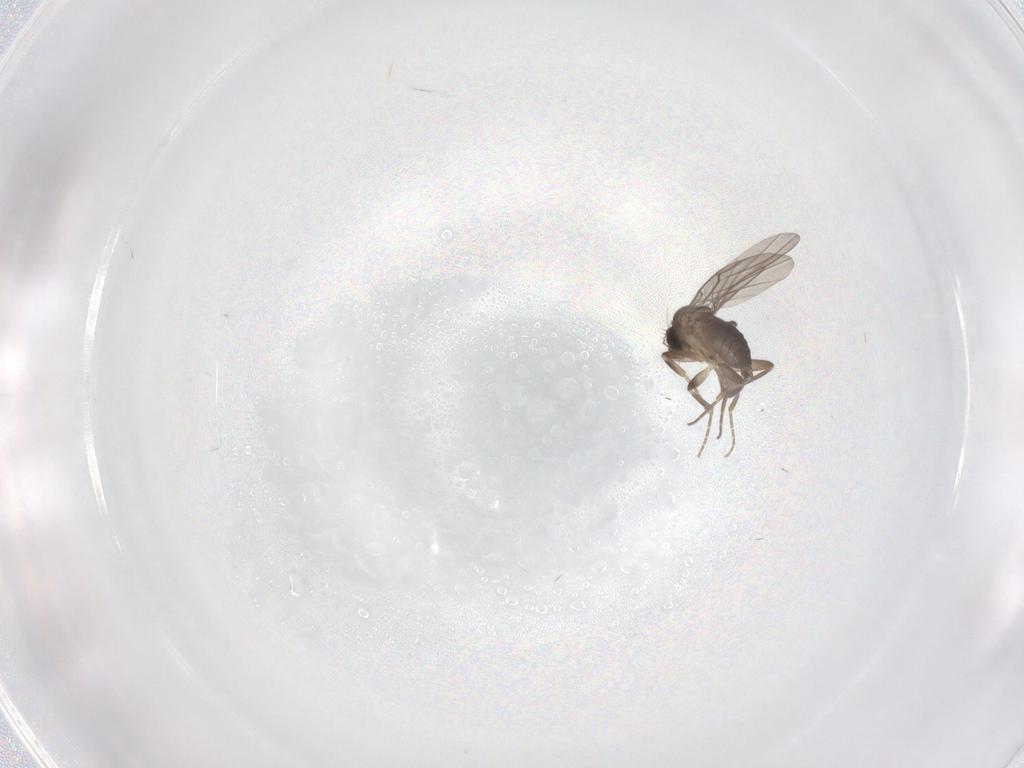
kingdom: Animalia
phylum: Arthropoda
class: Insecta
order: Diptera
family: Phoridae
